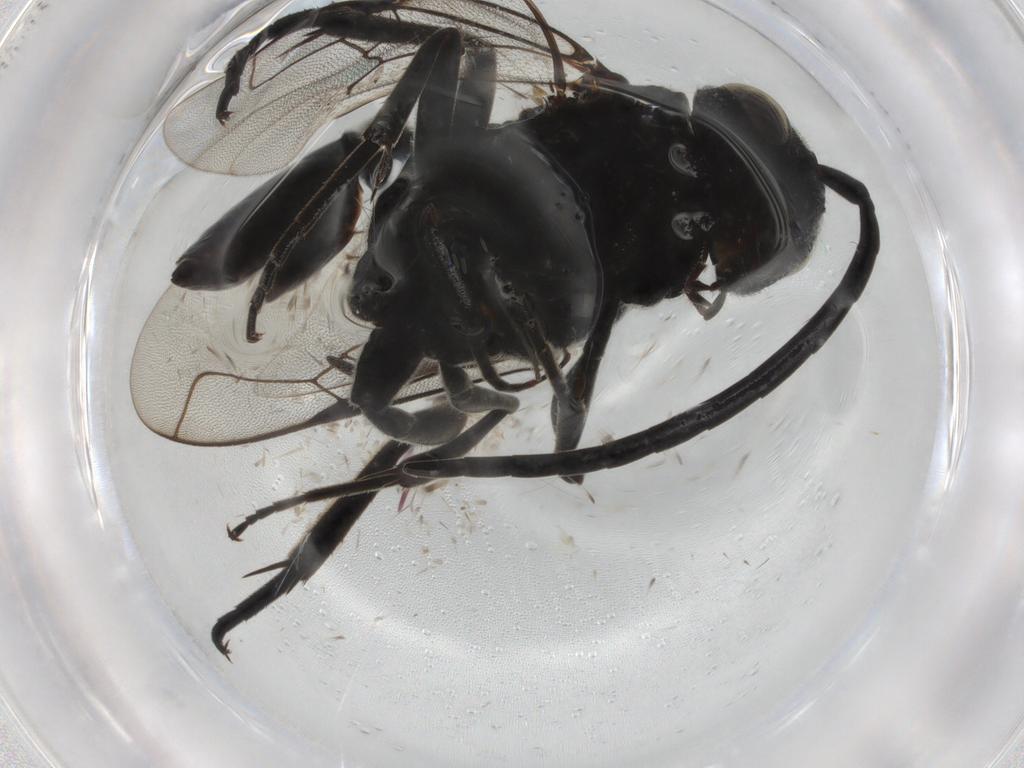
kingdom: Animalia
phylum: Arthropoda
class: Insecta
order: Hymenoptera
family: Evaniidae
